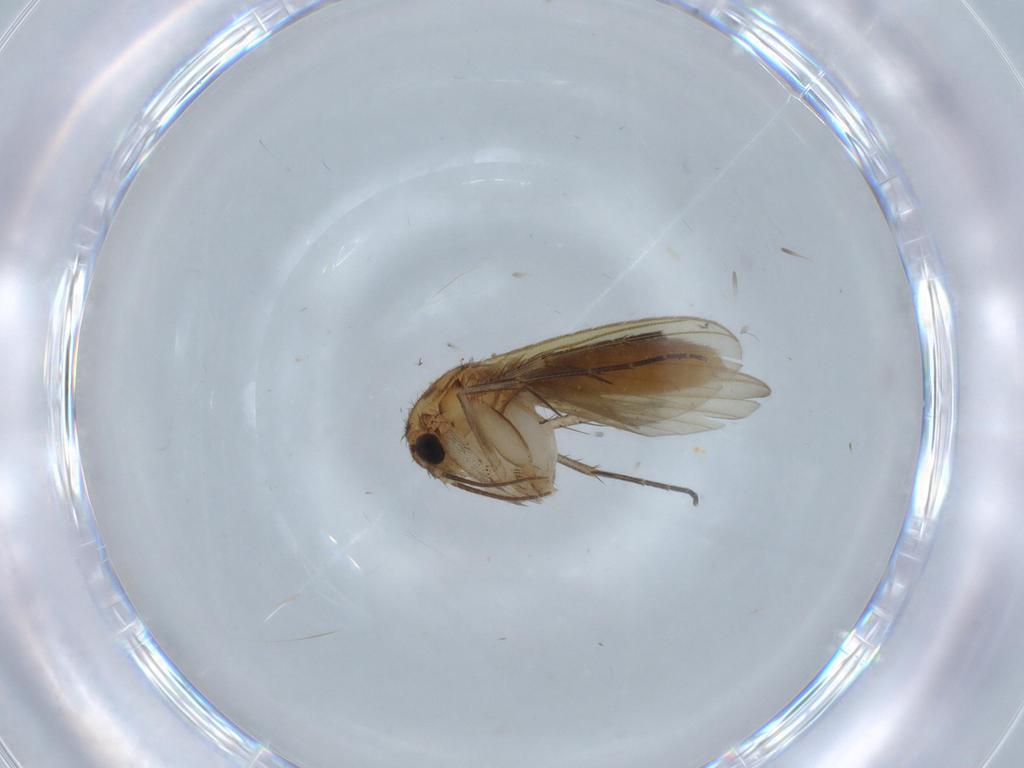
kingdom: Animalia
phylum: Arthropoda
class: Insecta
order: Diptera
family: Mycetophilidae
